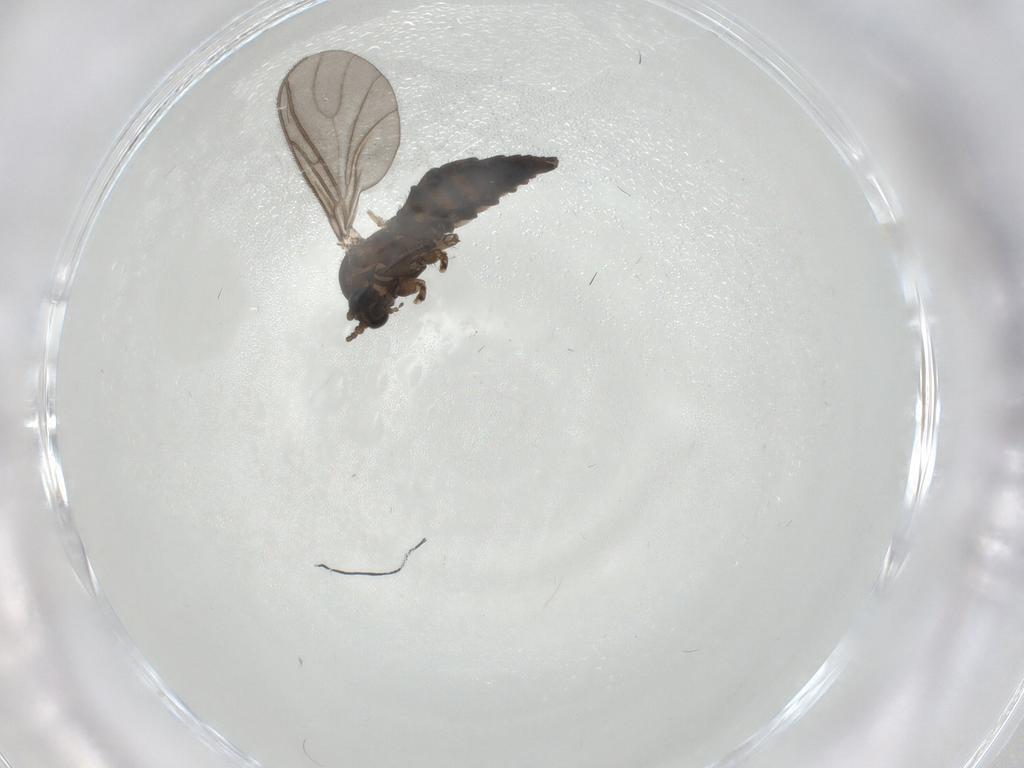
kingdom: Animalia
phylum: Arthropoda
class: Insecta
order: Diptera
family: Sciaridae
